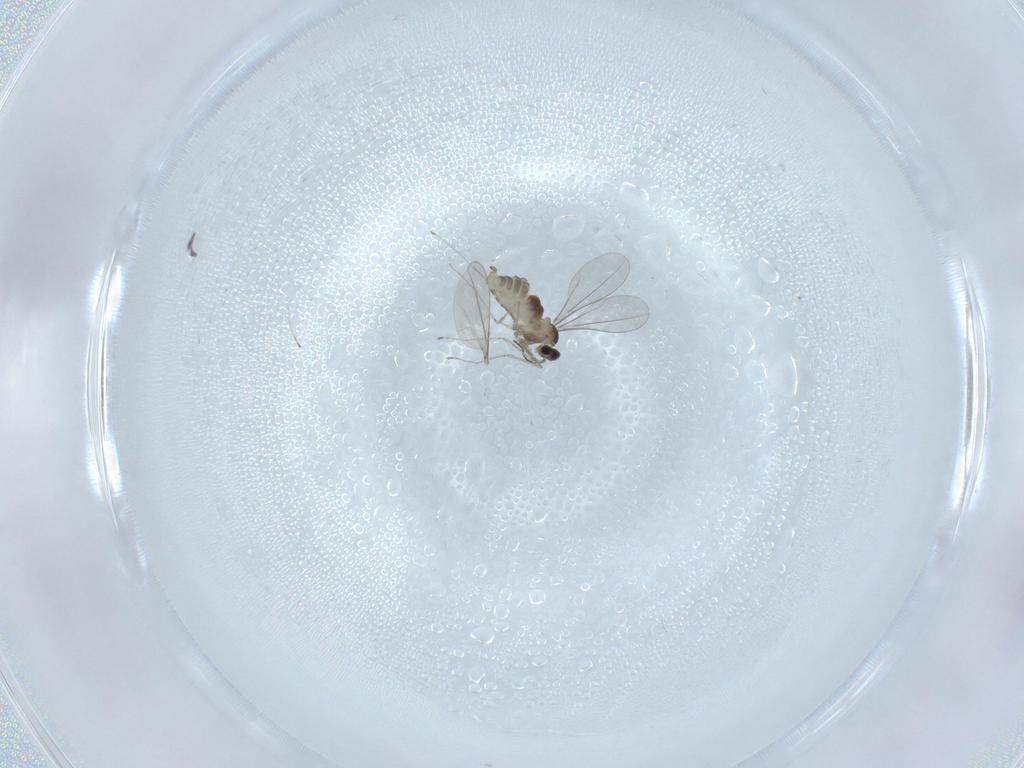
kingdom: Animalia
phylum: Arthropoda
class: Insecta
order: Diptera
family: Cecidomyiidae
